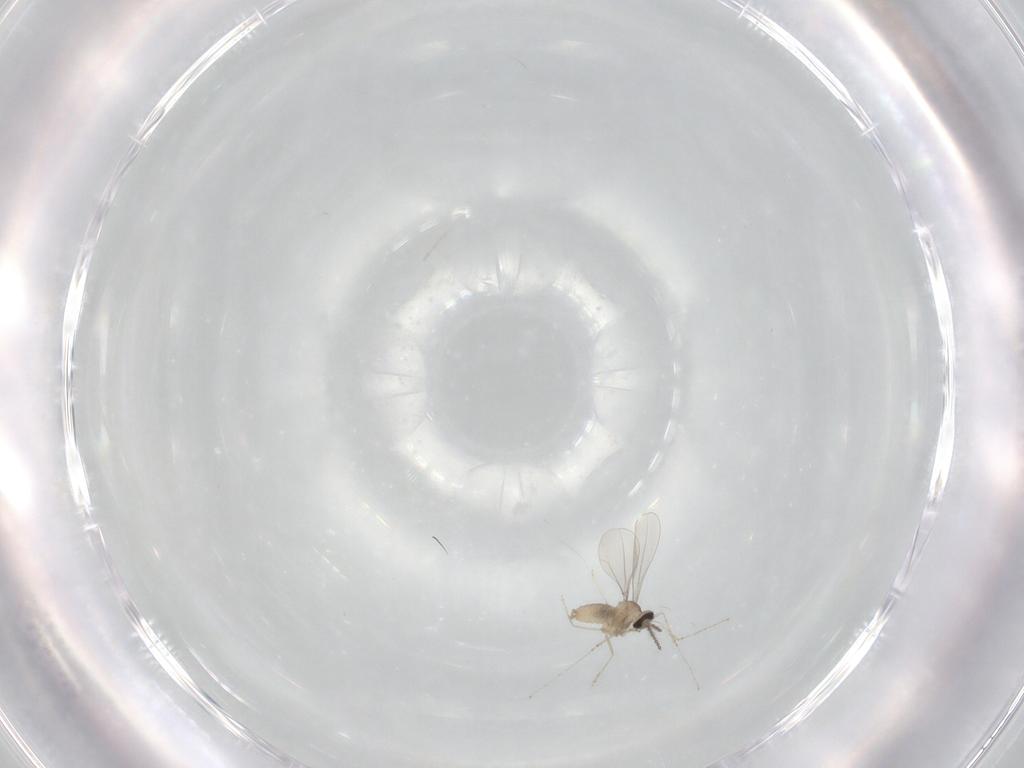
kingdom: Animalia
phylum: Arthropoda
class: Insecta
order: Diptera
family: Cecidomyiidae
